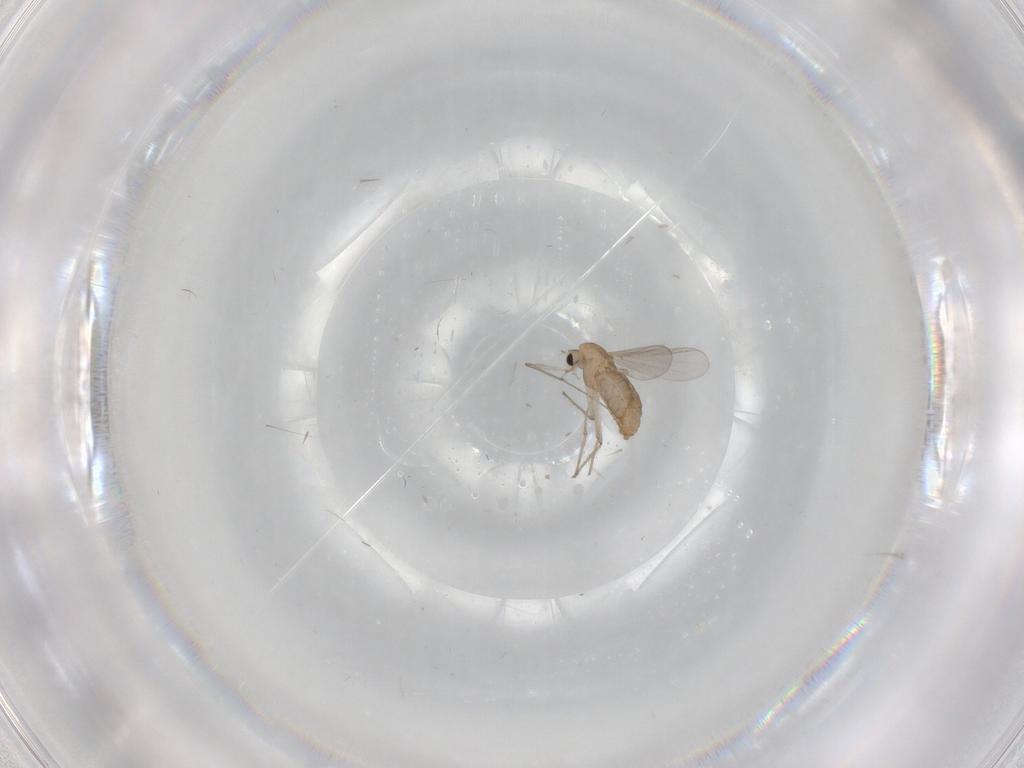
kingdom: Animalia
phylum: Arthropoda
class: Insecta
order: Diptera
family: Chironomidae
